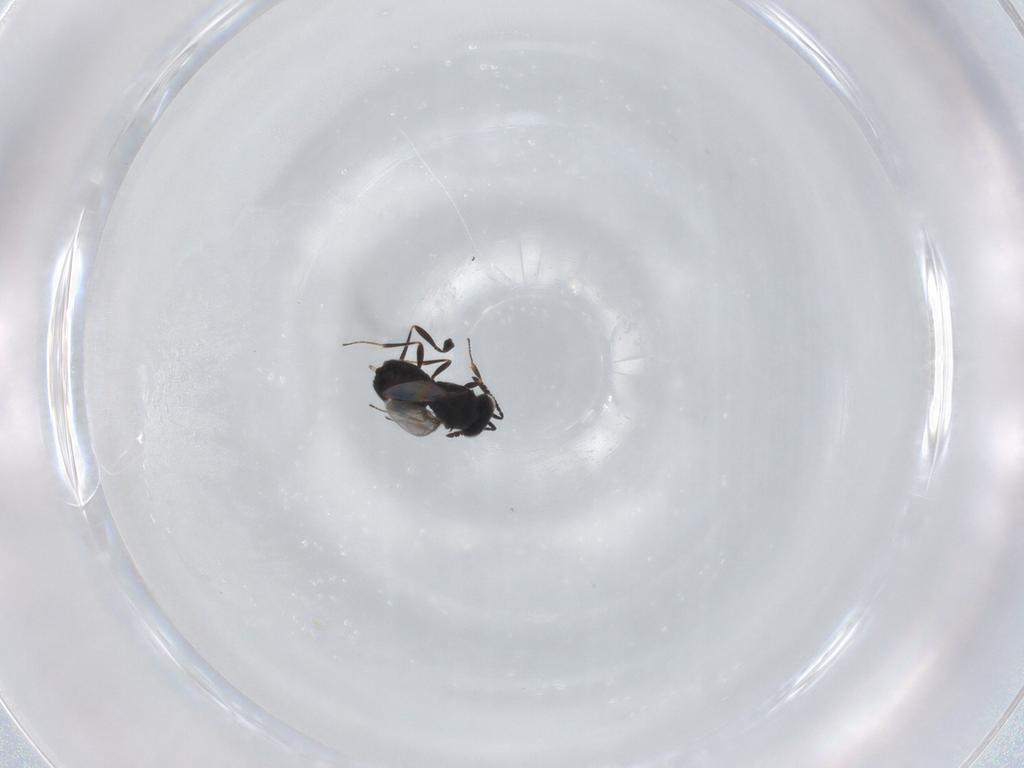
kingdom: Animalia
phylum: Arthropoda
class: Insecta
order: Hymenoptera
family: Scelionidae
